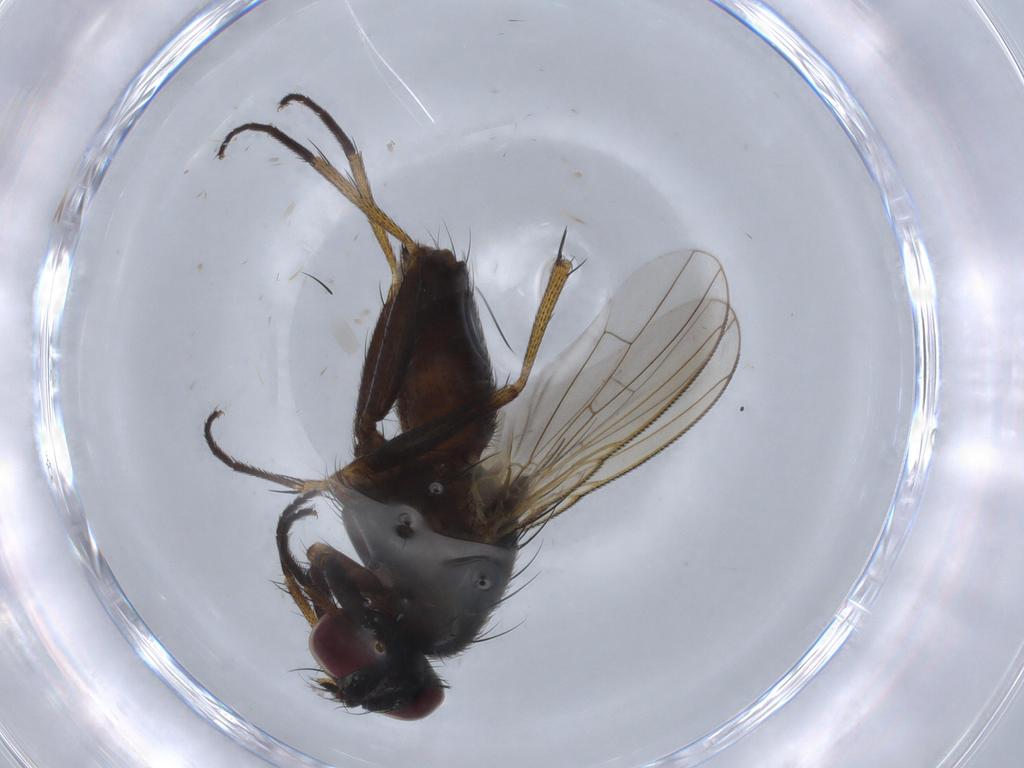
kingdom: Animalia
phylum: Arthropoda
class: Insecta
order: Diptera
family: Muscidae
